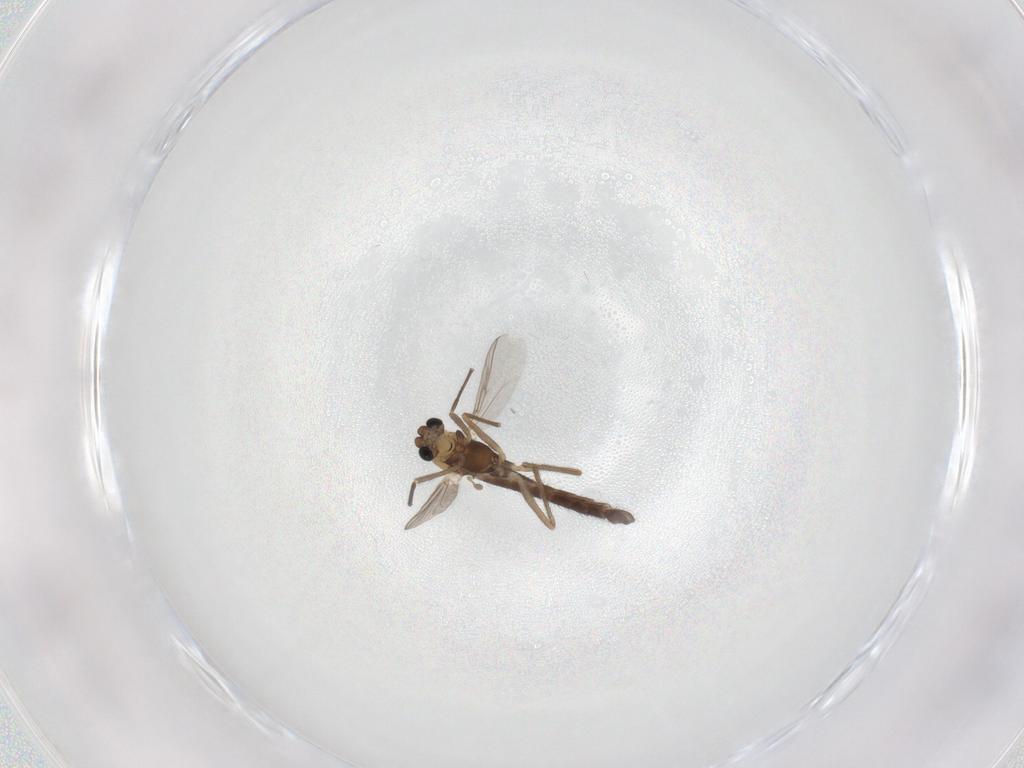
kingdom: Animalia
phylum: Arthropoda
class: Insecta
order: Diptera
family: Chironomidae
